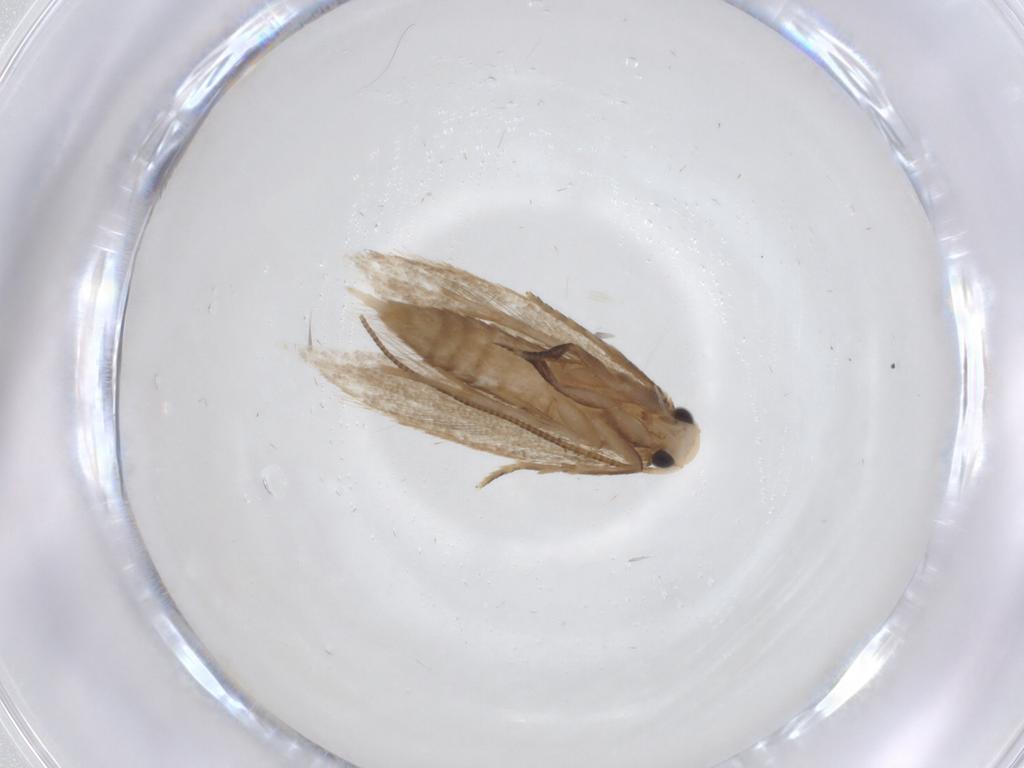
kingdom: Animalia
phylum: Arthropoda
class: Insecta
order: Lepidoptera
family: Tineidae
